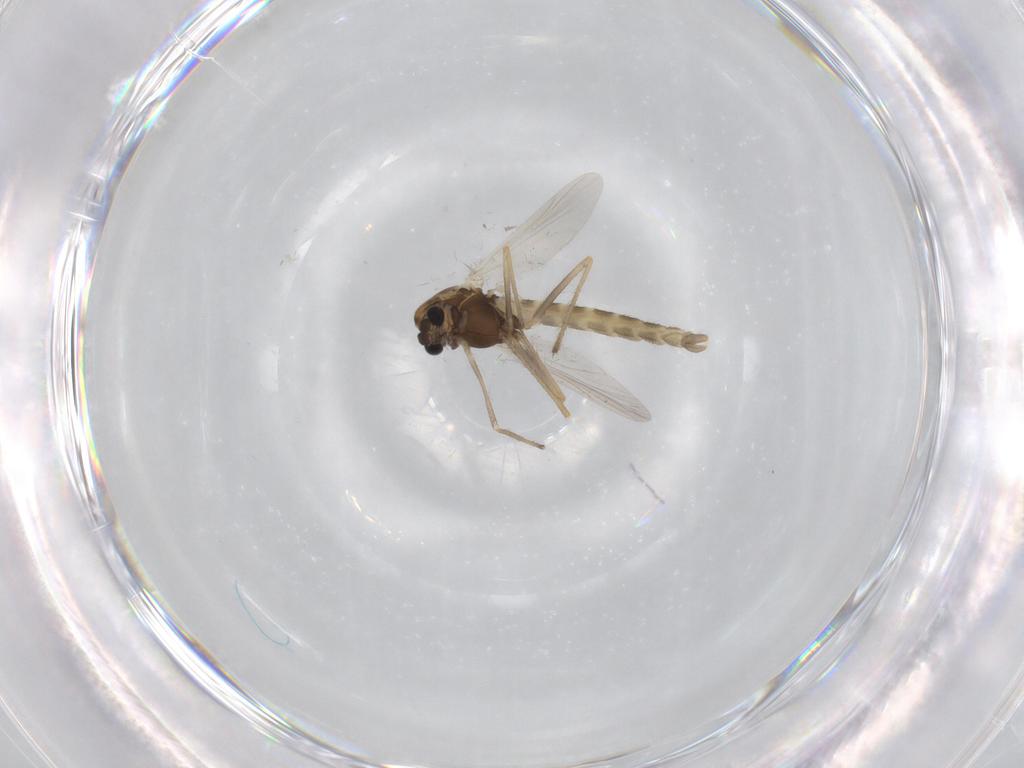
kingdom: Animalia
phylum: Arthropoda
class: Insecta
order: Diptera
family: Chironomidae
